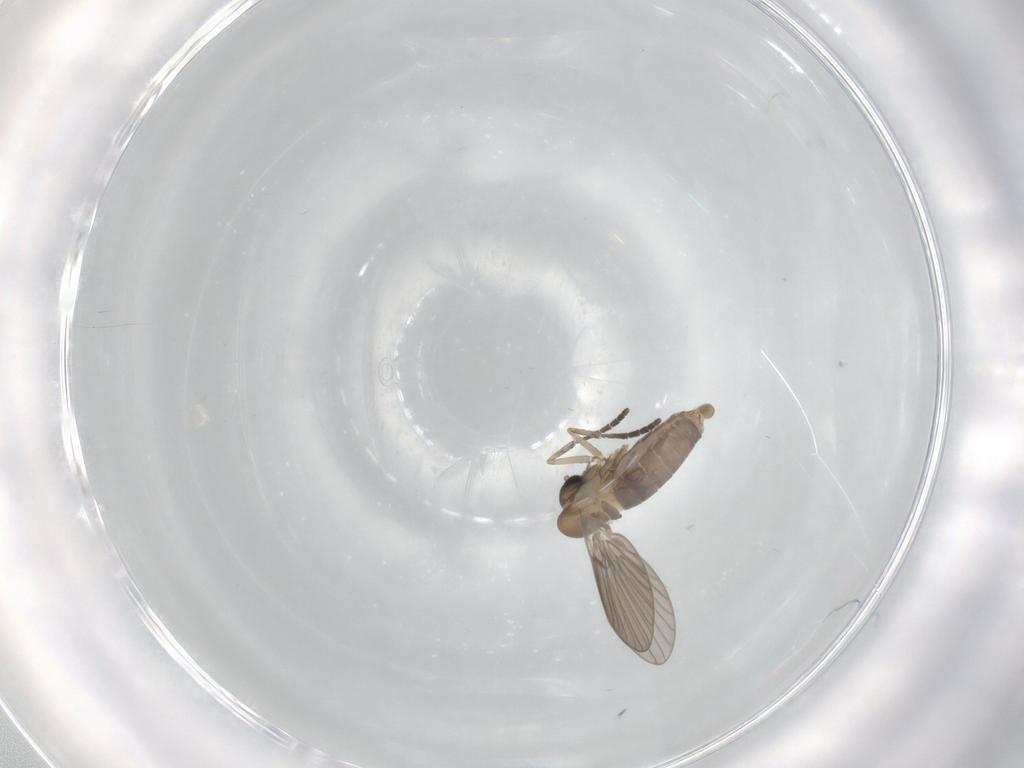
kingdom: Animalia
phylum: Arthropoda
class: Insecta
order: Diptera
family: Psychodidae
